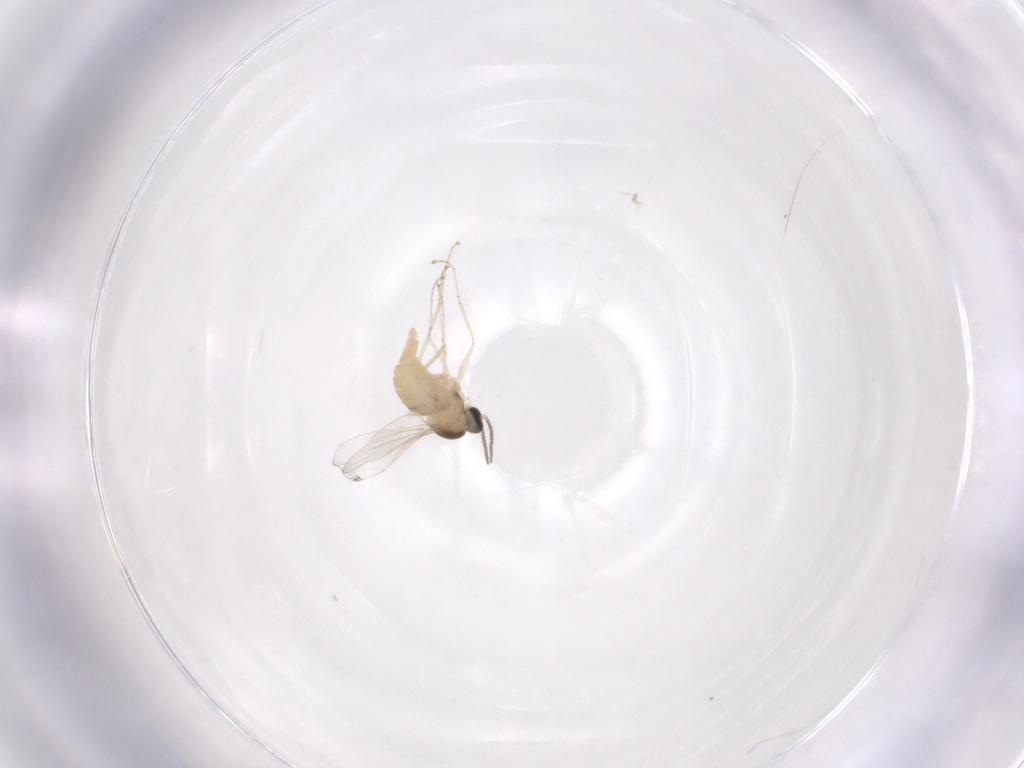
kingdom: Animalia
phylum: Arthropoda
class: Insecta
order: Diptera
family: Cecidomyiidae
